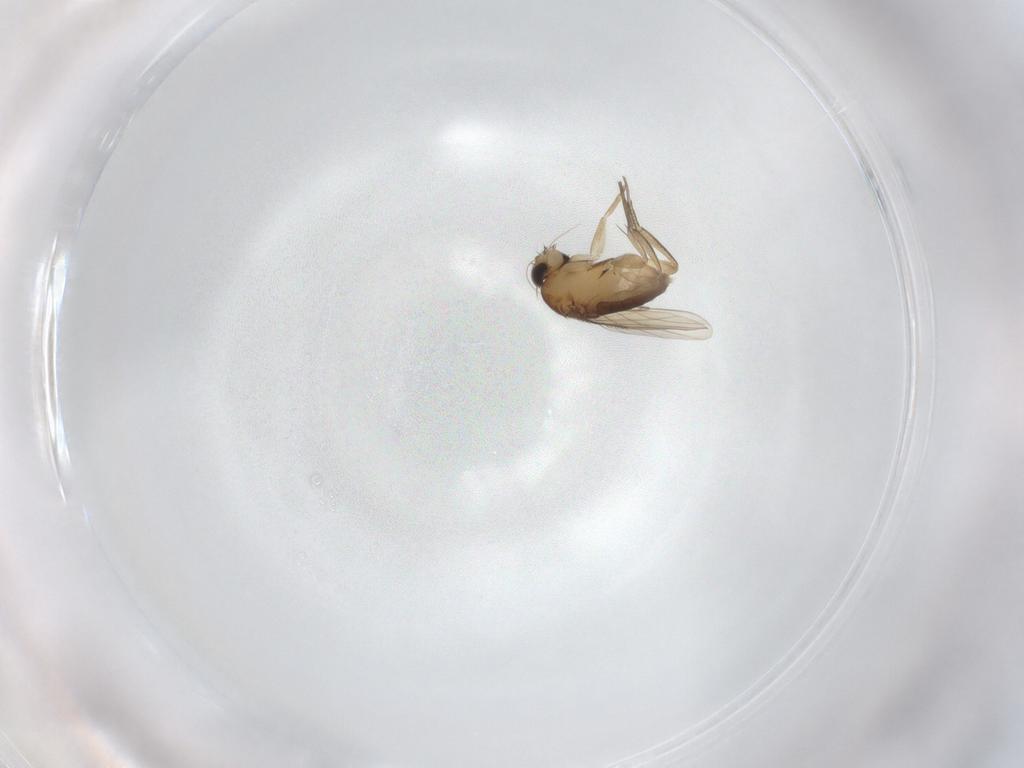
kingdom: Animalia
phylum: Arthropoda
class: Insecta
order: Diptera
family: Phoridae
